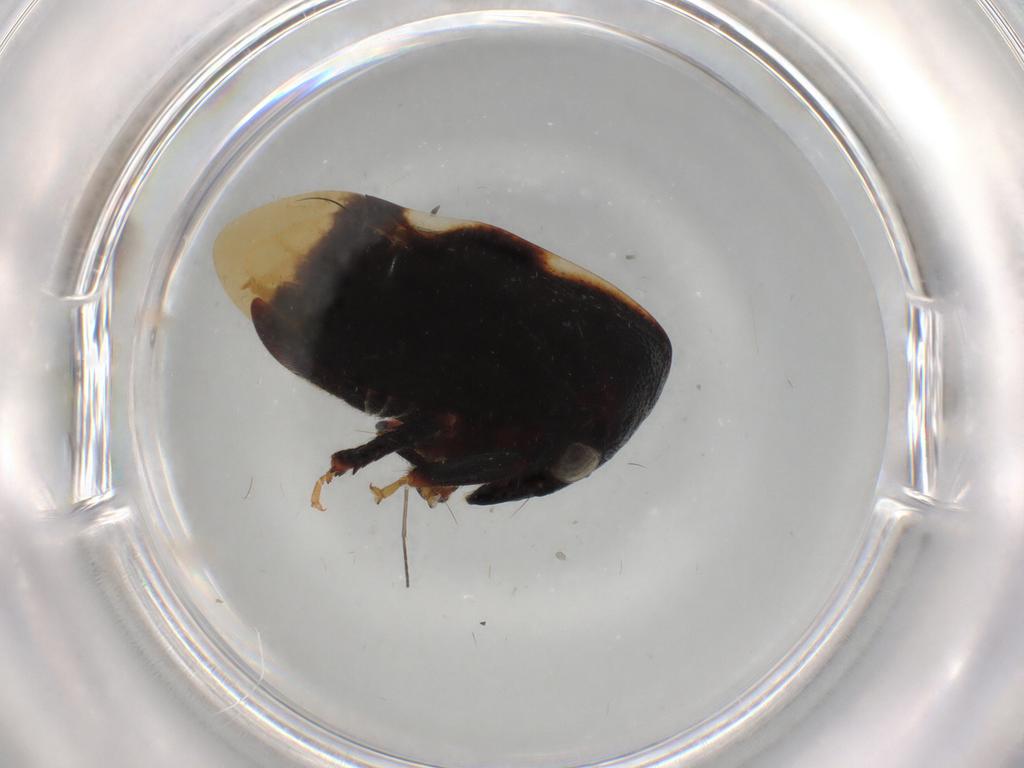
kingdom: Animalia
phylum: Arthropoda
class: Insecta
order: Hemiptera
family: Membracidae
